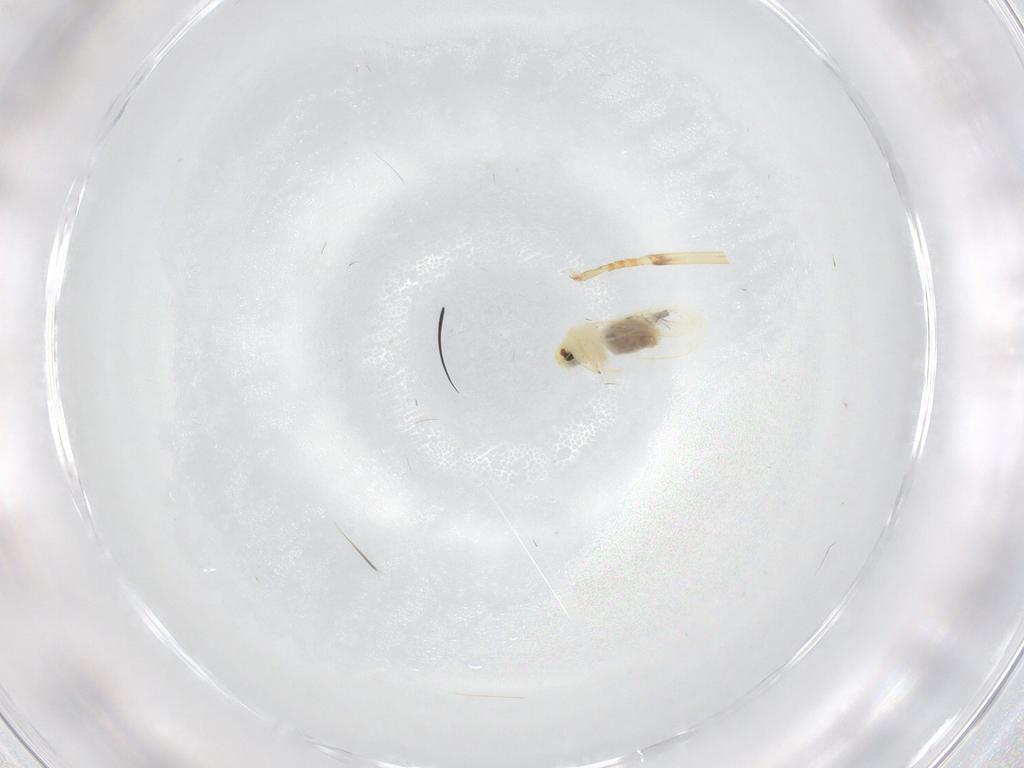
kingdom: Animalia
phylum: Arthropoda
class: Insecta
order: Hemiptera
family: Aleyrodidae
